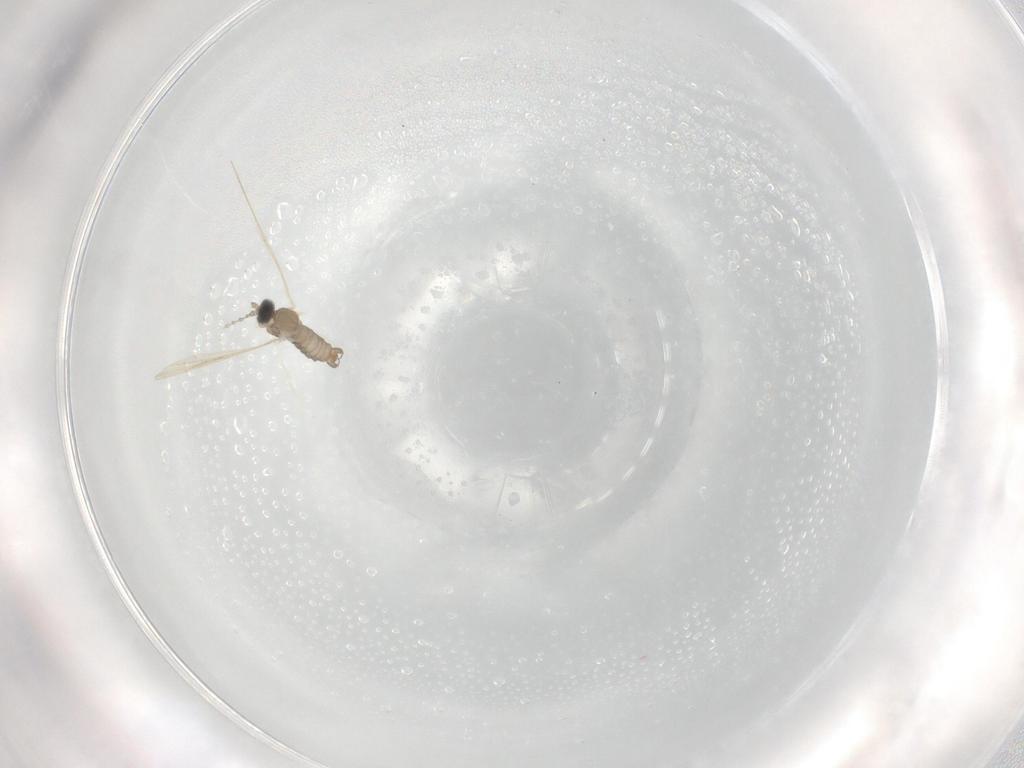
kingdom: Animalia
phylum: Arthropoda
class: Insecta
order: Diptera
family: Cecidomyiidae
